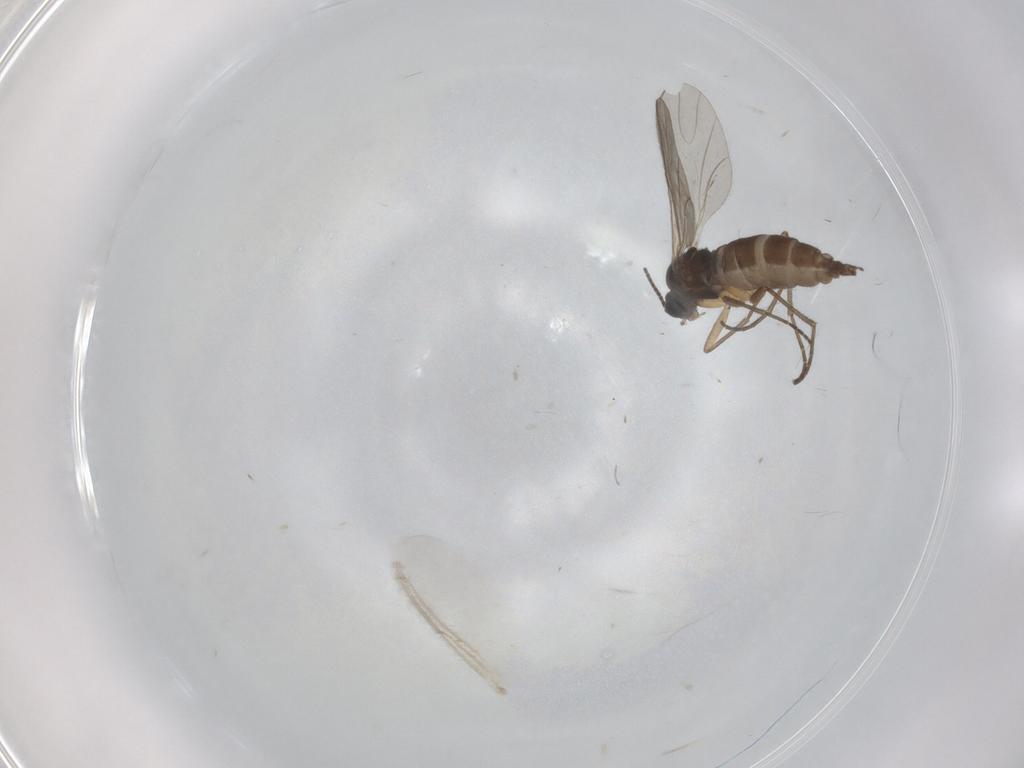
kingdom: Animalia
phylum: Arthropoda
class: Insecta
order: Diptera
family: Sciaridae
